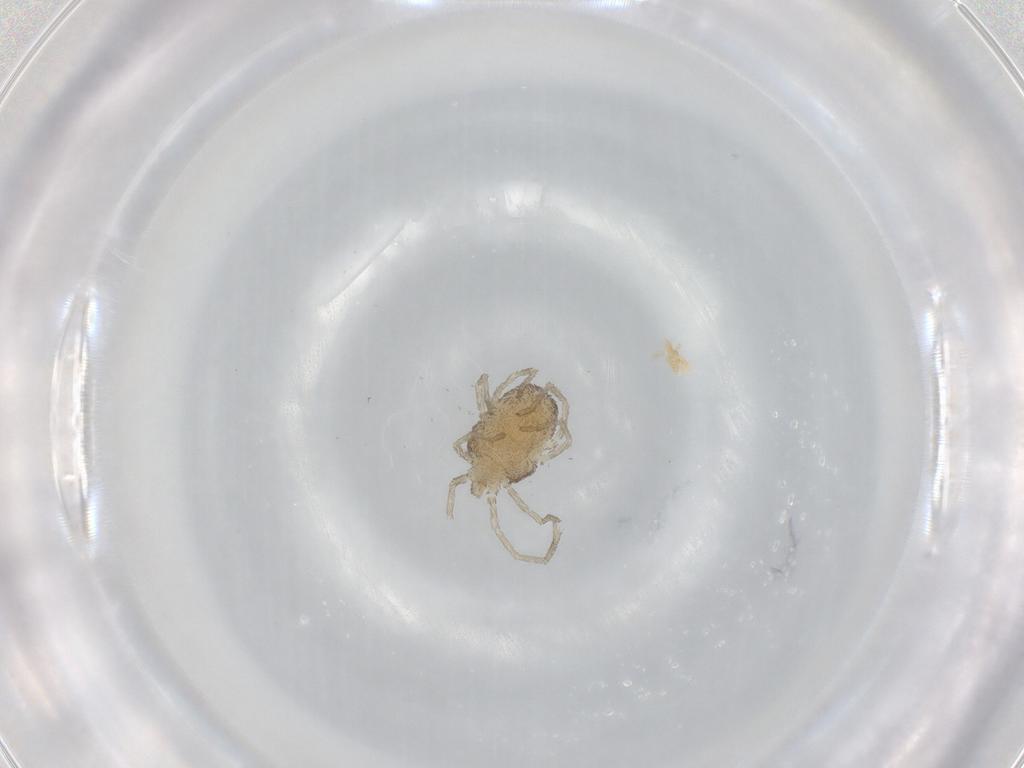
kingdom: Animalia
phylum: Arthropoda
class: Arachnida
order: Trombidiformes
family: Smarididae
